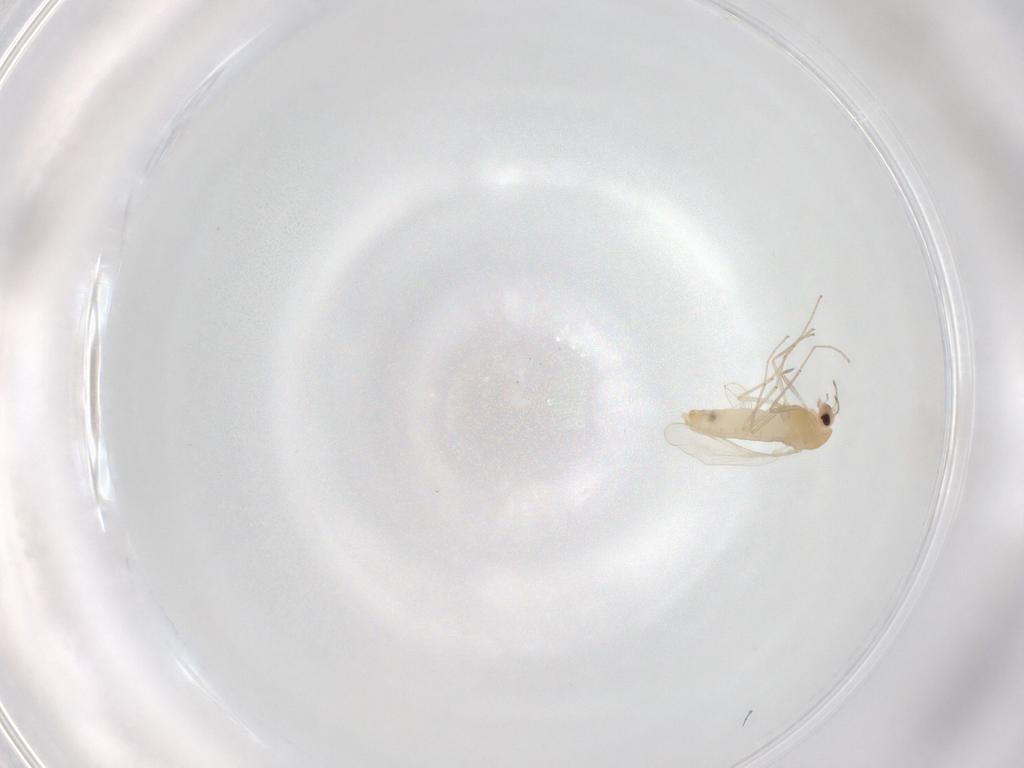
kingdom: Animalia
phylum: Arthropoda
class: Insecta
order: Diptera
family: Chironomidae
